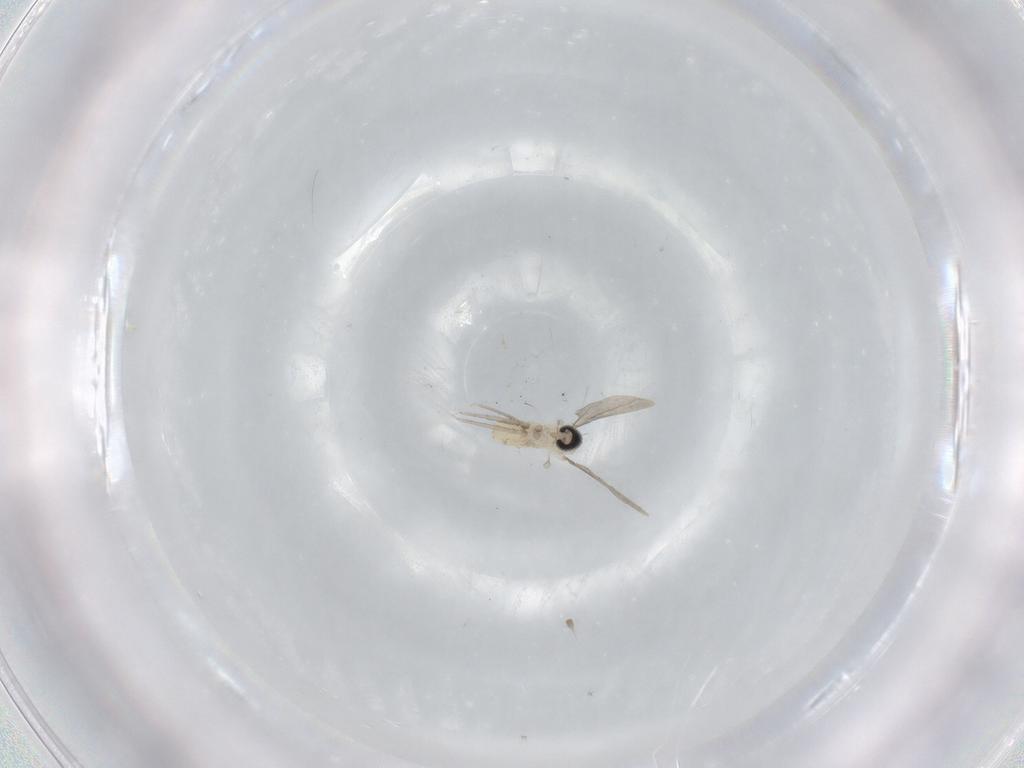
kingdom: Animalia
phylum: Arthropoda
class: Insecta
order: Diptera
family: Cecidomyiidae
